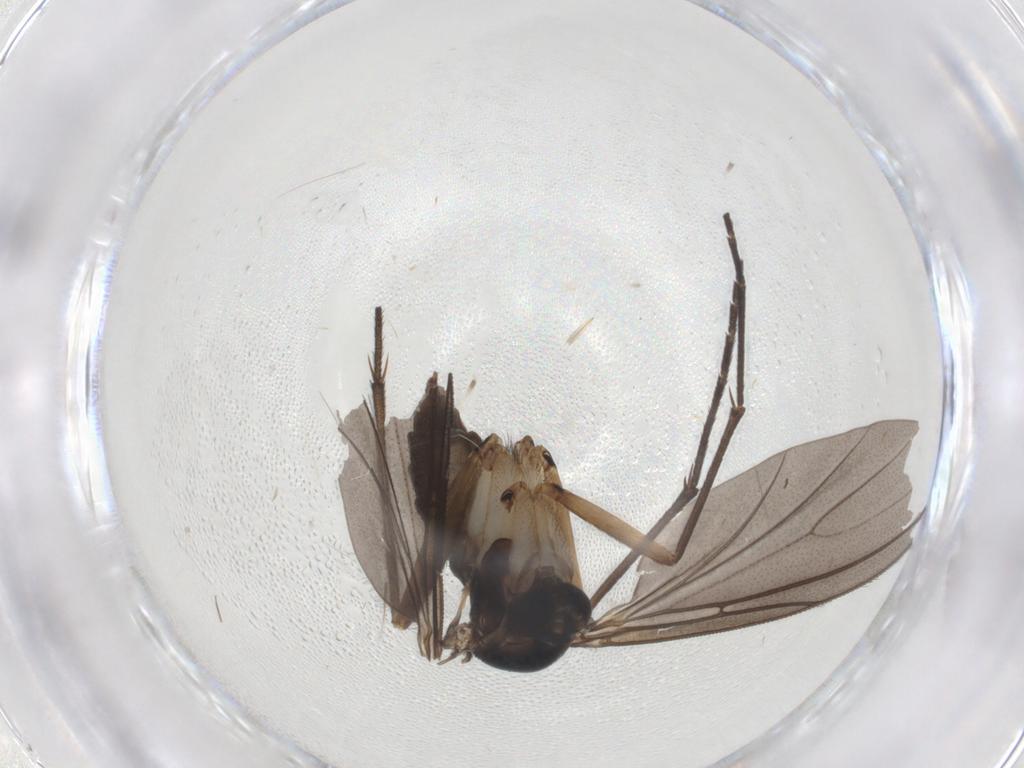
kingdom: Animalia
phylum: Arthropoda
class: Insecta
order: Diptera
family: Sciaridae
